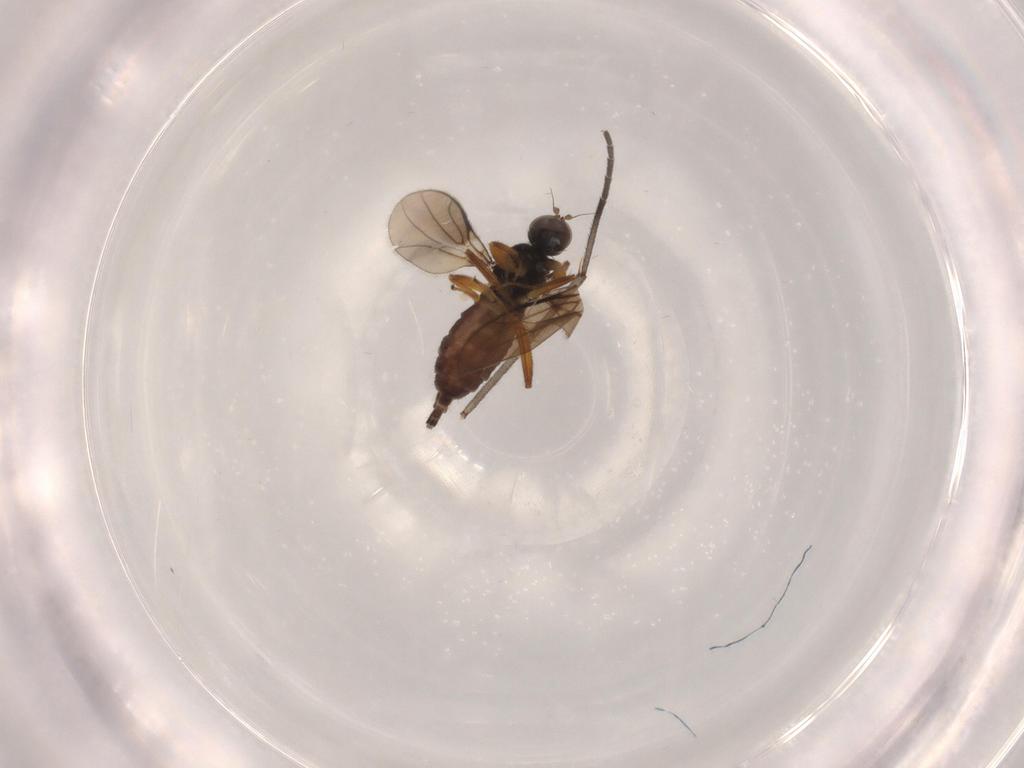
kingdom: Animalia
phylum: Arthropoda
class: Insecta
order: Diptera
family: Hybotidae
